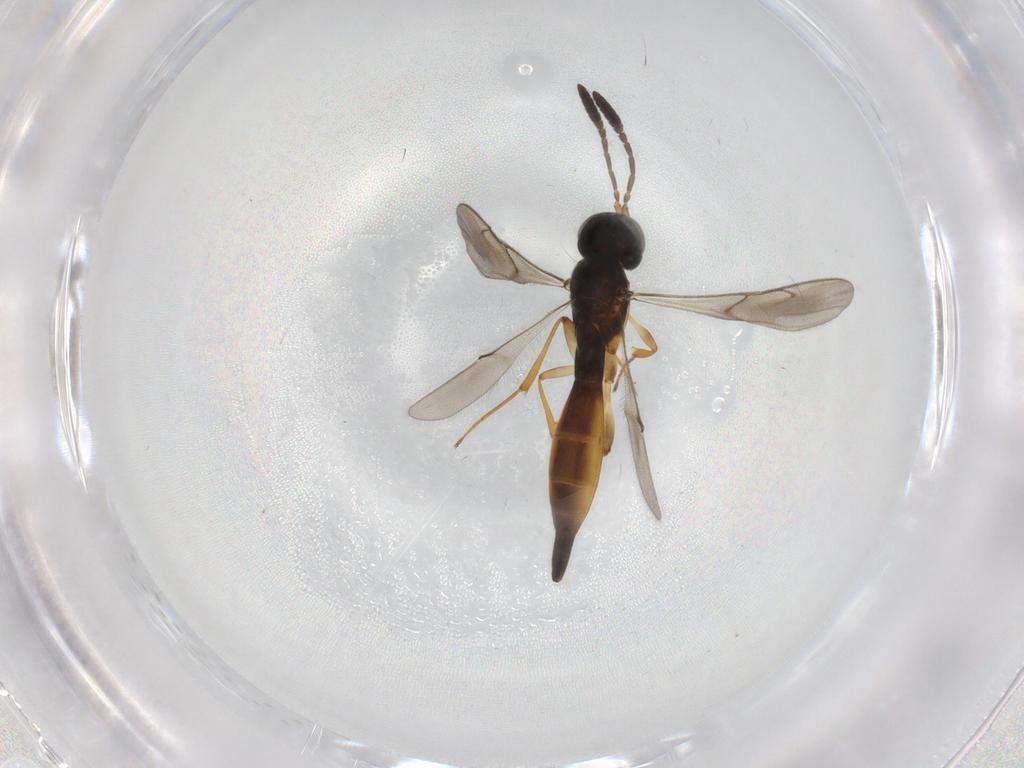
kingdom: Animalia
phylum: Arthropoda
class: Insecta
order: Hymenoptera
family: Scelionidae
